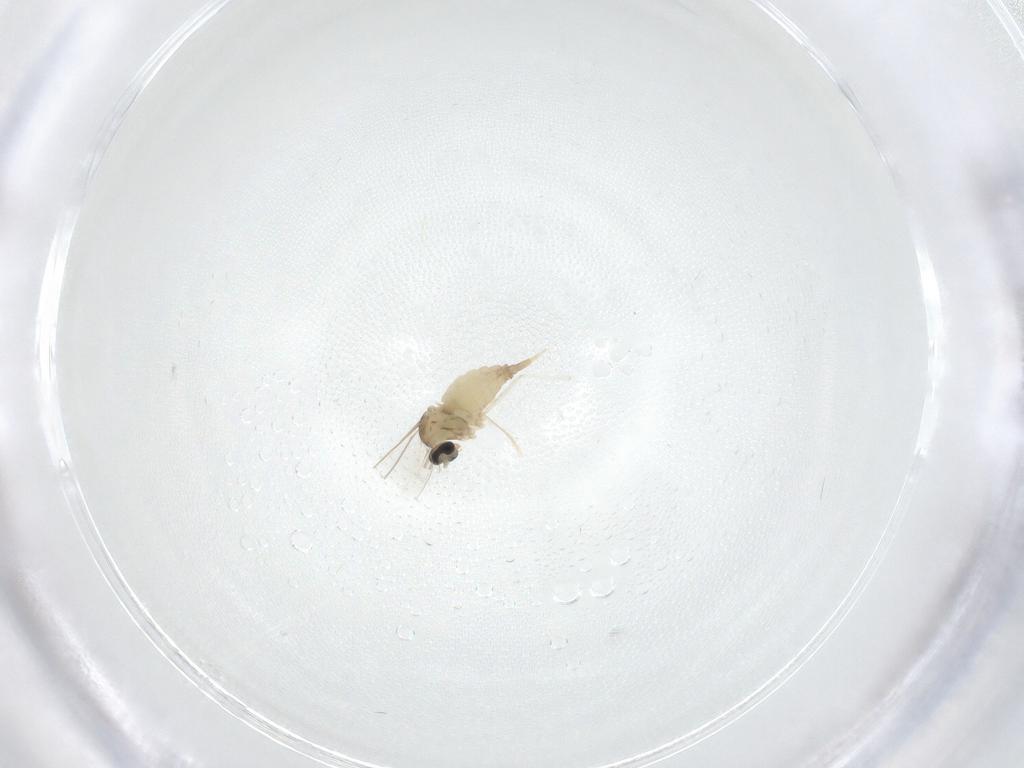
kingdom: Animalia
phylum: Arthropoda
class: Insecta
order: Diptera
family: Cecidomyiidae
